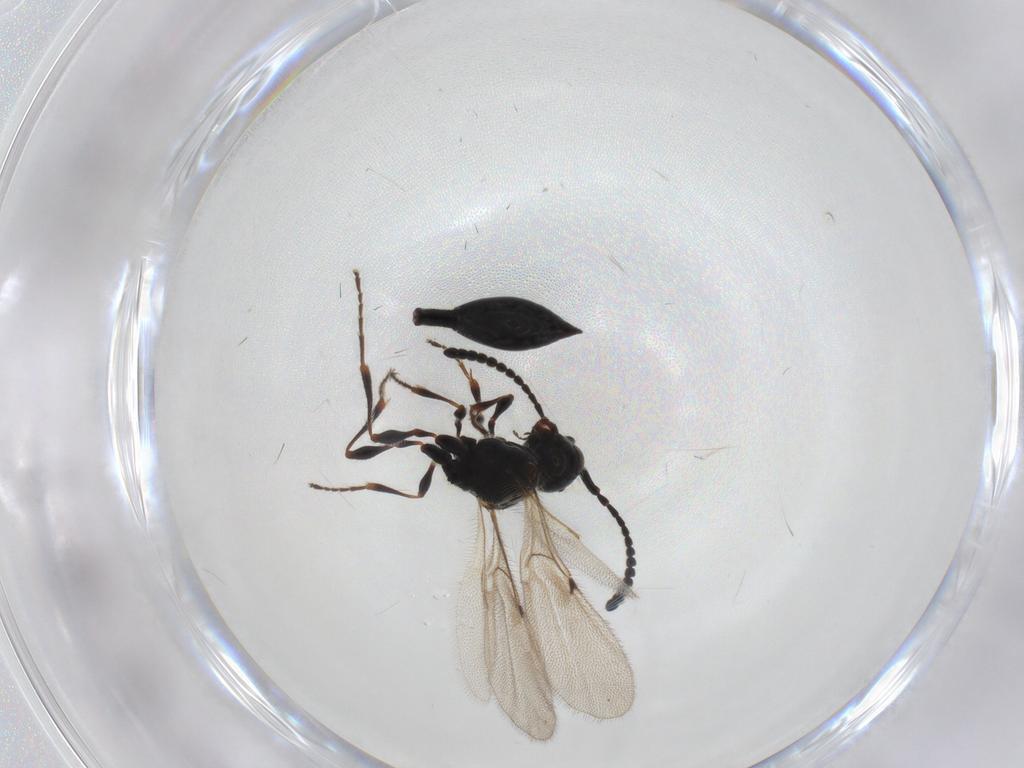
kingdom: Animalia
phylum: Arthropoda
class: Insecta
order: Hymenoptera
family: Diapriidae
